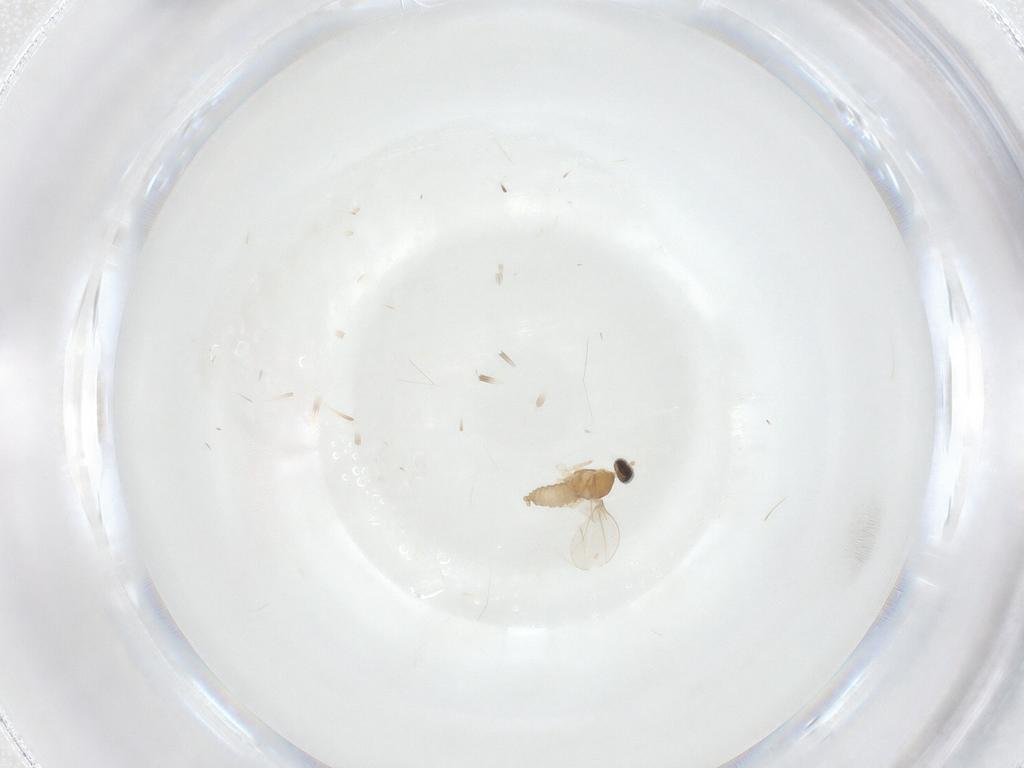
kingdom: Animalia
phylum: Arthropoda
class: Insecta
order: Diptera
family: Cecidomyiidae
